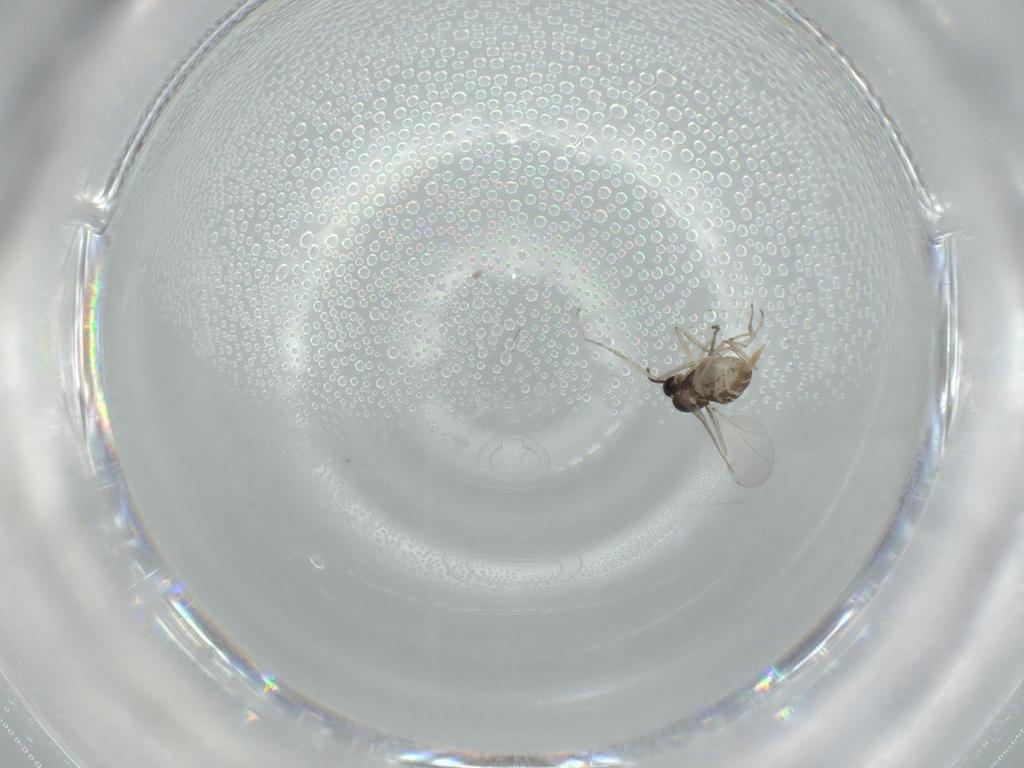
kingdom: Animalia
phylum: Arthropoda
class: Insecta
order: Diptera
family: Cecidomyiidae
